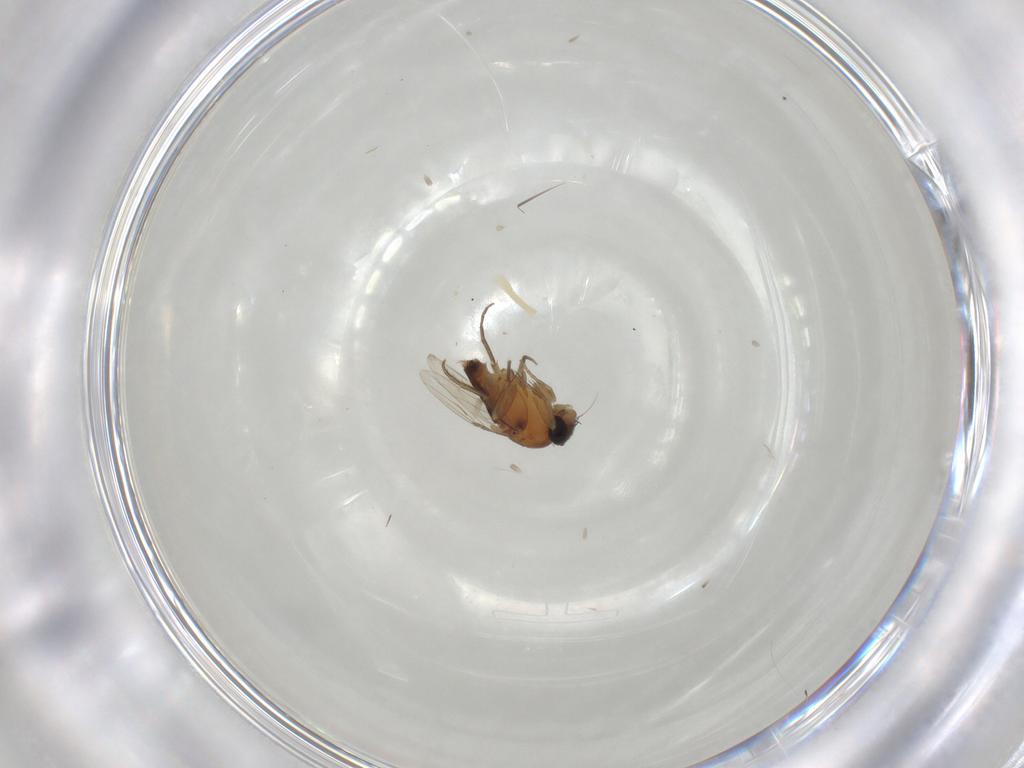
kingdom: Animalia
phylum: Arthropoda
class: Insecta
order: Diptera
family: Phoridae
